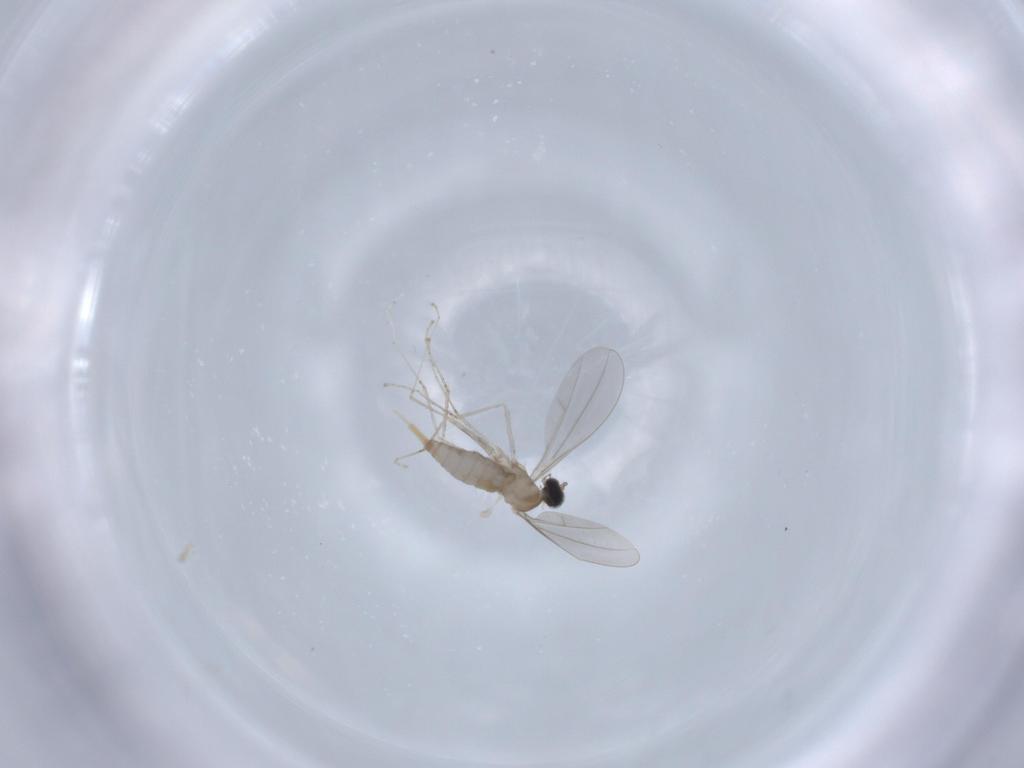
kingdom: Animalia
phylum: Arthropoda
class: Insecta
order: Diptera
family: Cecidomyiidae
